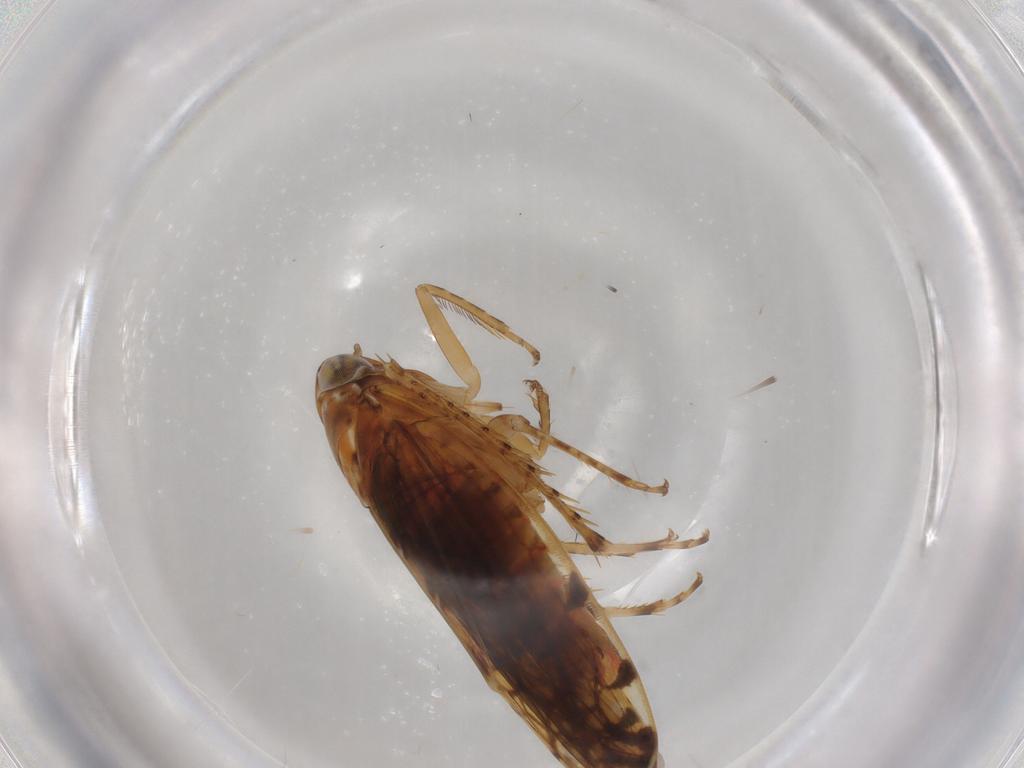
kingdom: Animalia
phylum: Arthropoda
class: Insecta
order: Hemiptera
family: Cicadellidae
